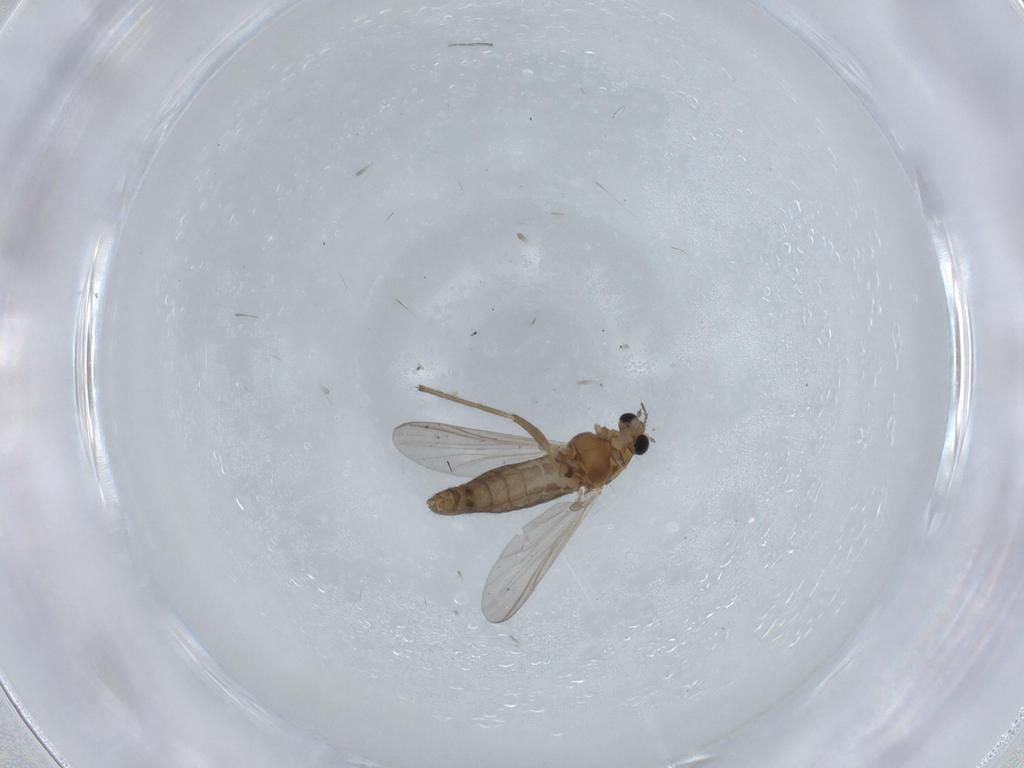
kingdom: Animalia
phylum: Arthropoda
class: Insecta
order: Diptera
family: Chironomidae
